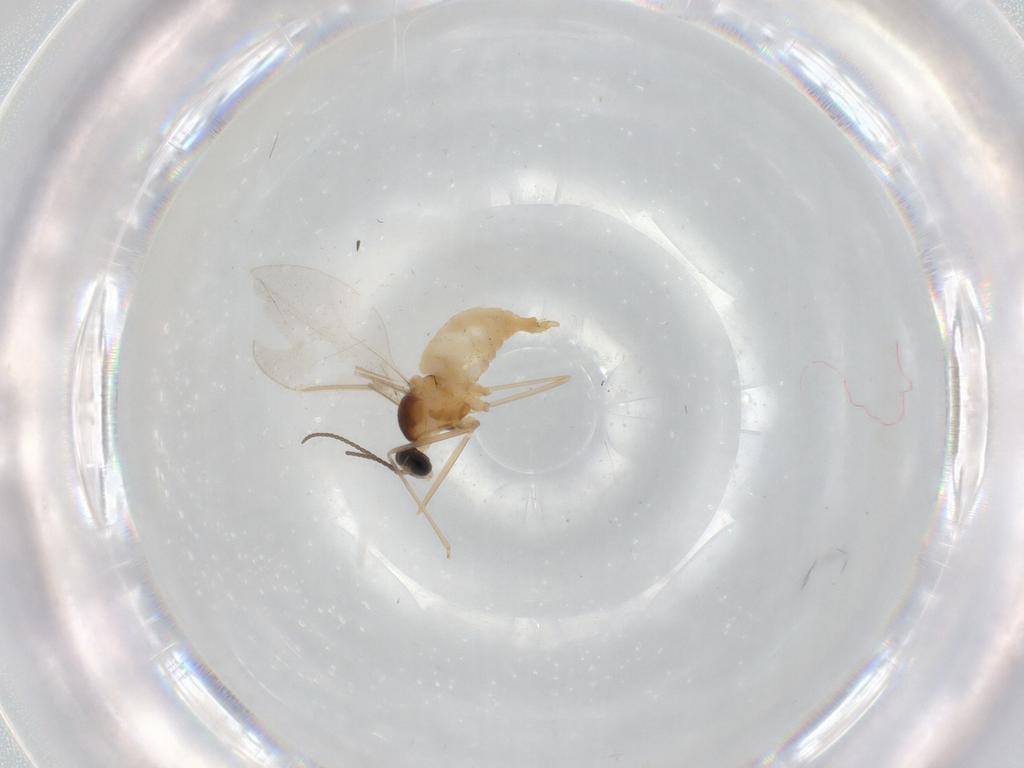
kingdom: Animalia
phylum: Arthropoda
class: Insecta
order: Diptera
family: Cecidomyiidae
